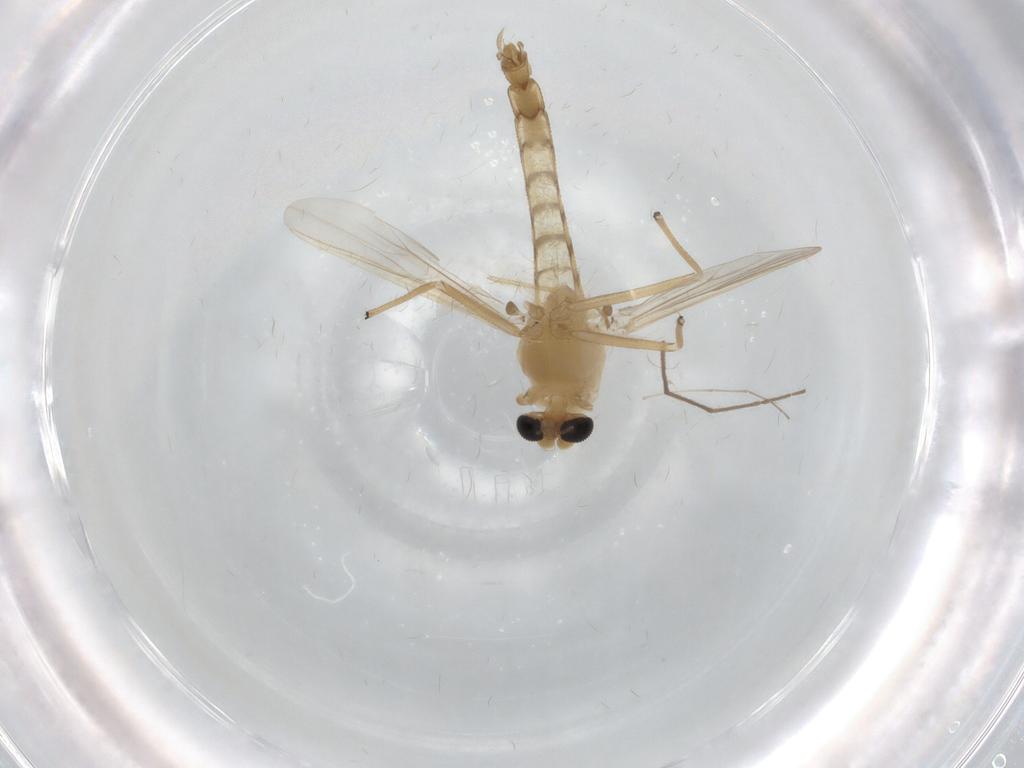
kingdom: Animalia
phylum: Arthropoda
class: Insecta
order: Diptera
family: Chironomidae
